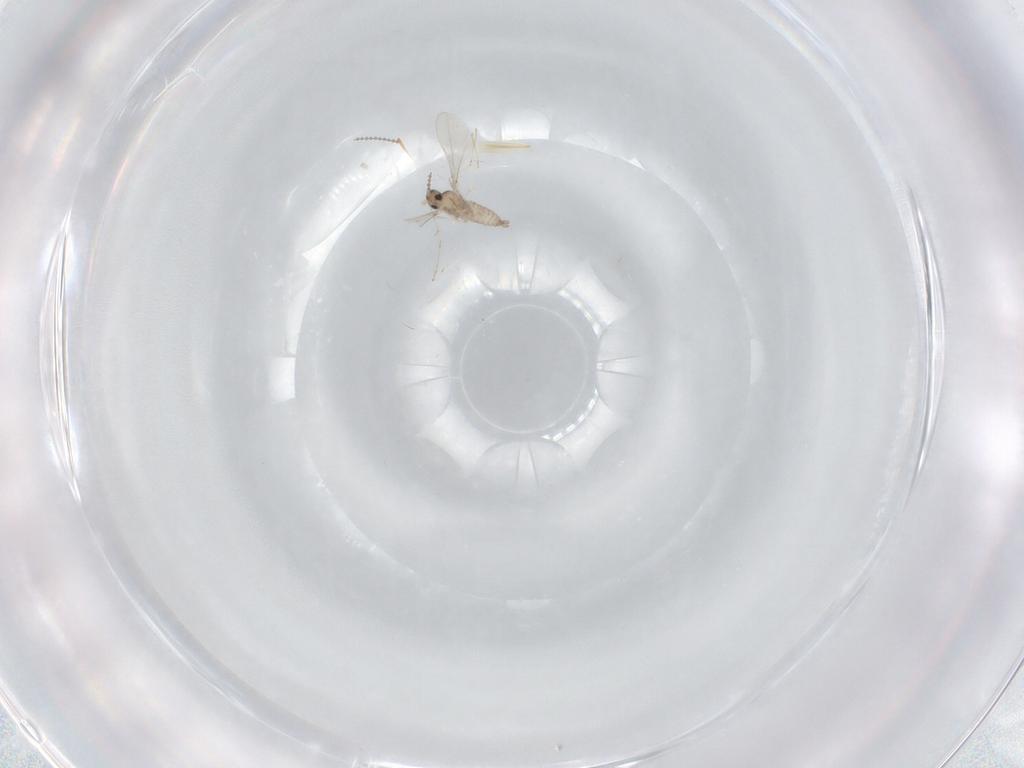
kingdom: Animalia
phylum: Arthropoda
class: Insecta
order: Diptera
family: Cecidomyiidae
